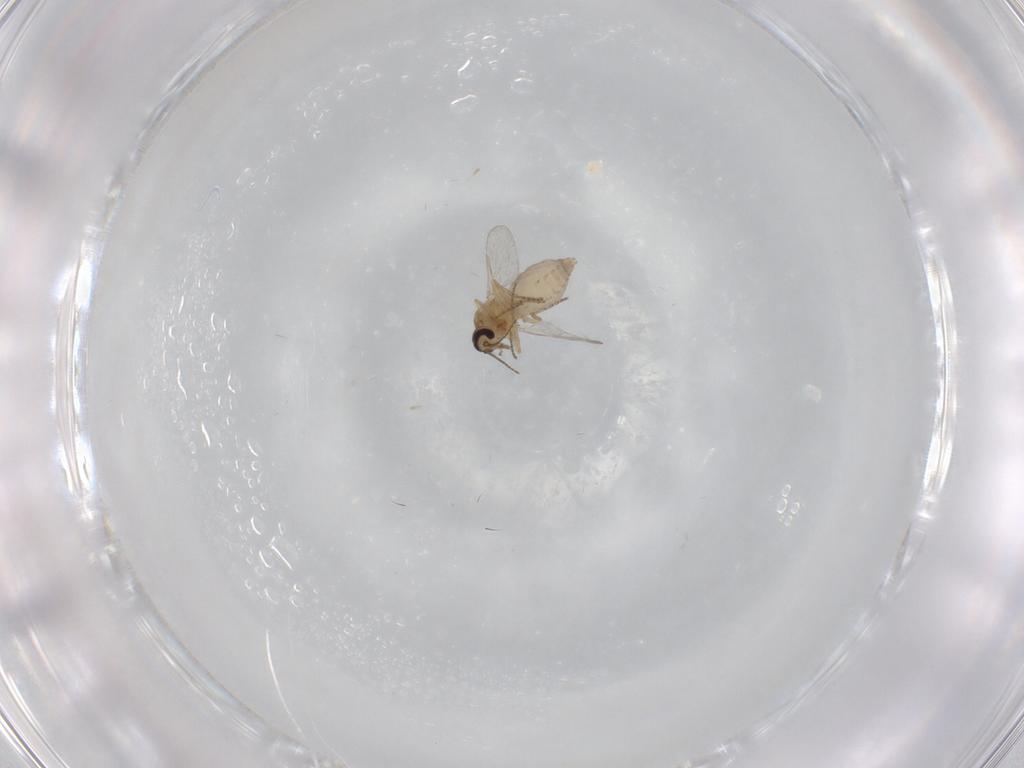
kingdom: Animalia
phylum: Arthropoda
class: Insecta
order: Diptera
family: Ceratopogonidae
